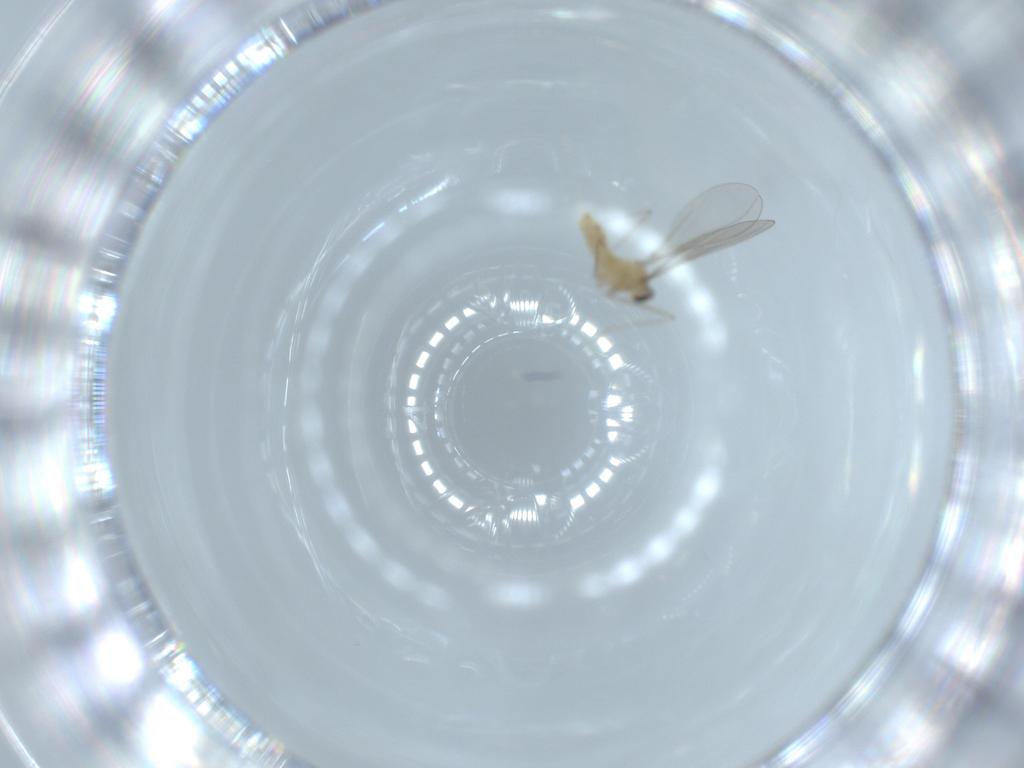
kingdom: Animalia
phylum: Arthropoda
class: Insecta
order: Diptera
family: Cecidomyiidae
